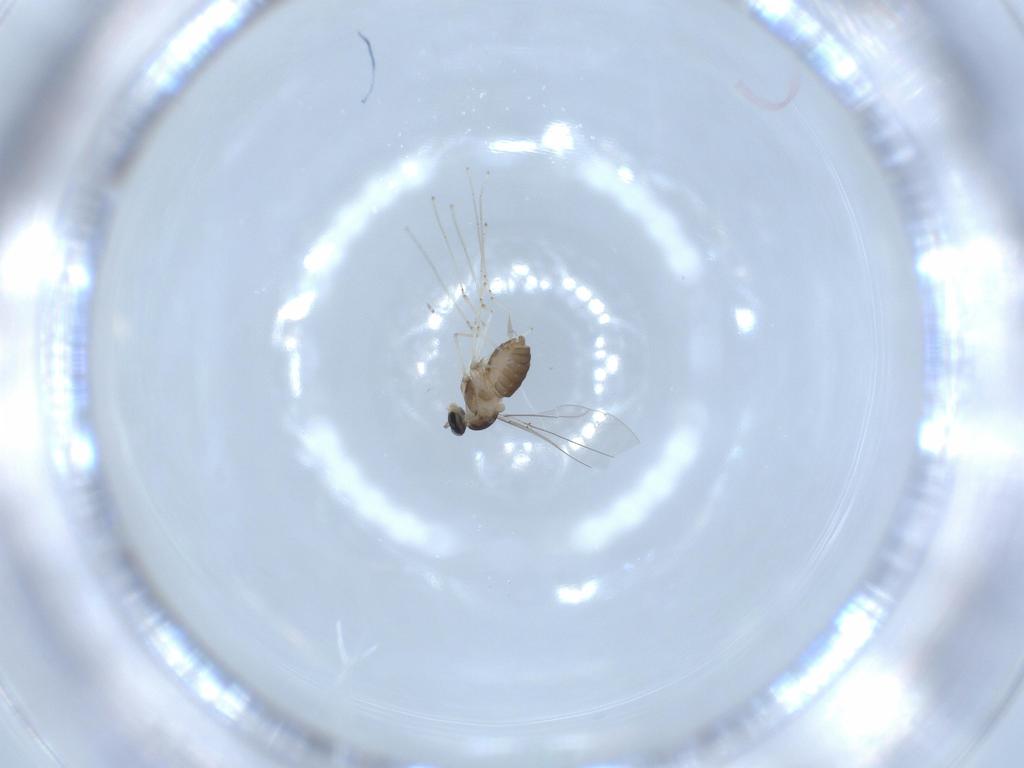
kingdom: Animalia
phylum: Arthropoda
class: Insecta
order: Diptera
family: Cecidomyiidae
